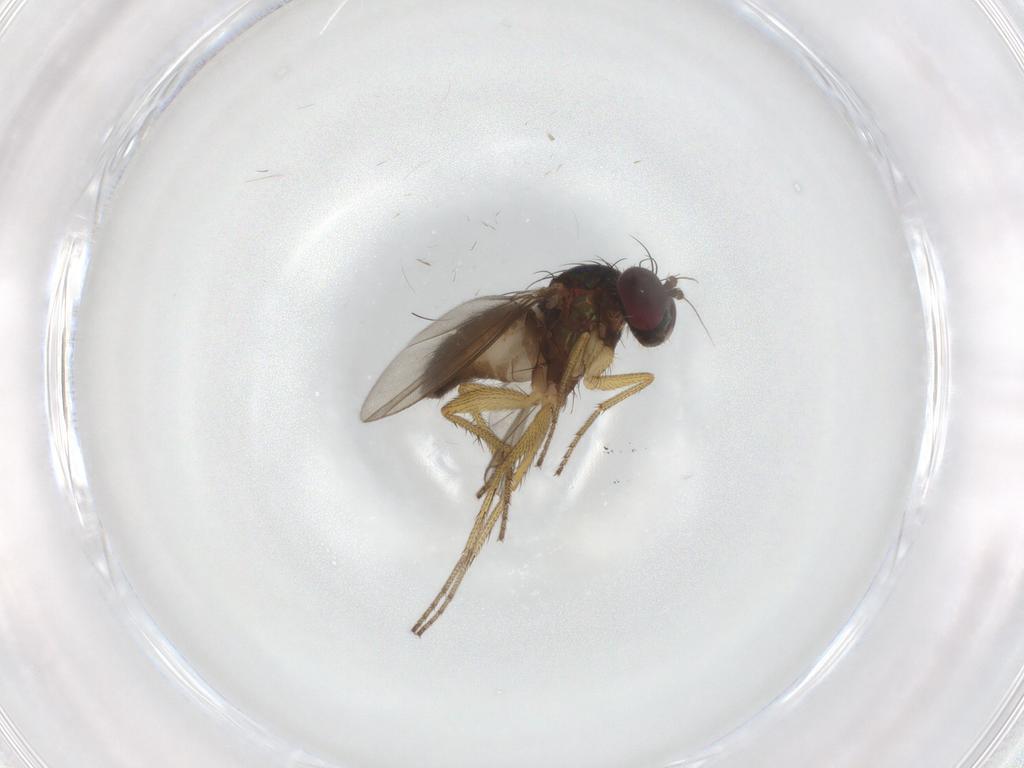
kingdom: Animalia
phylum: Arthropoda
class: Insecta
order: Diptera
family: Sciaridae
